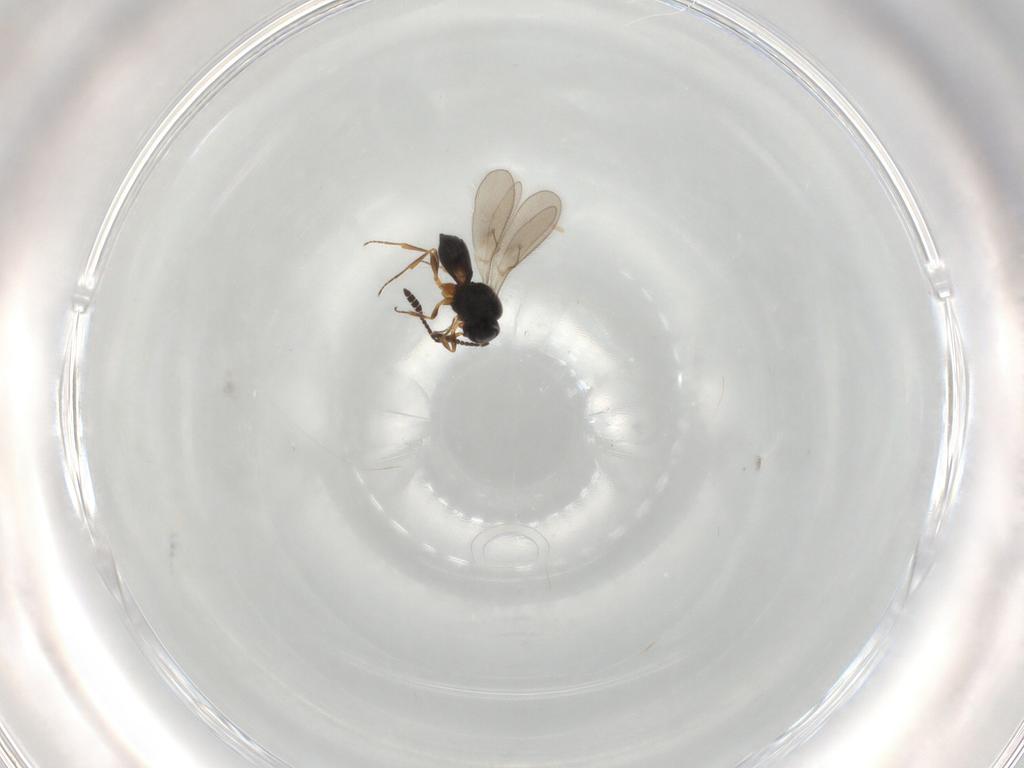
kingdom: Animalia
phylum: Arthropoda
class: Insecta
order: Hymenoptera
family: Scelionidae
